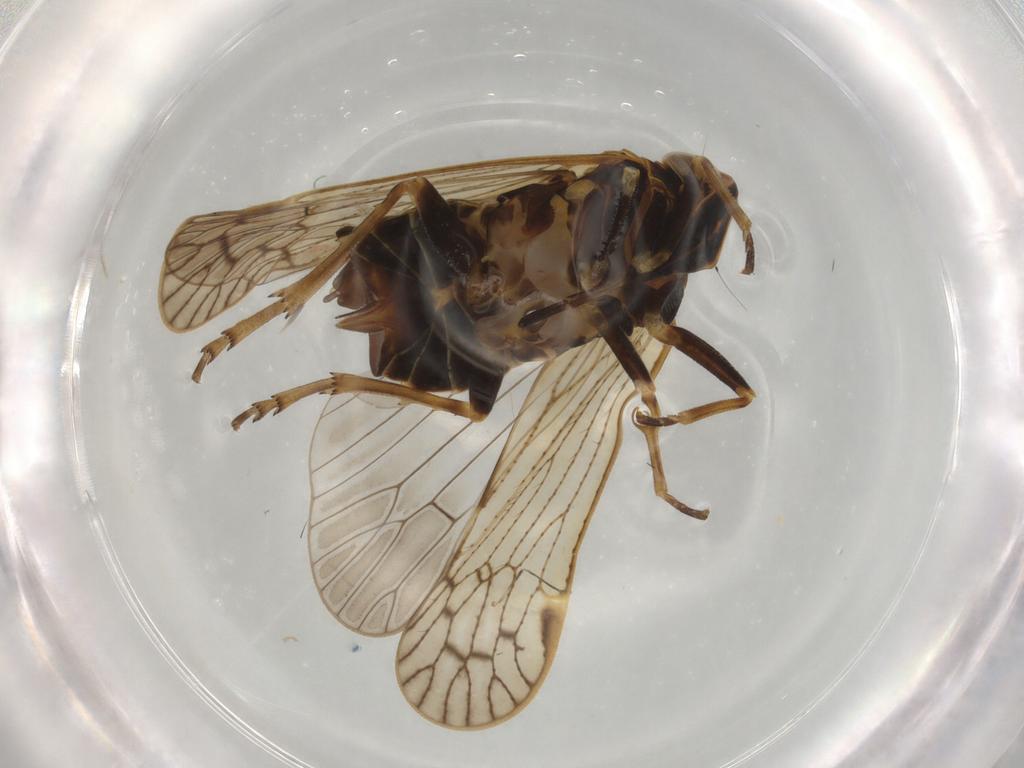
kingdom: Animalia
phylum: Arthropoda
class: Insecta
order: Hemiptera
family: Cixiidae
